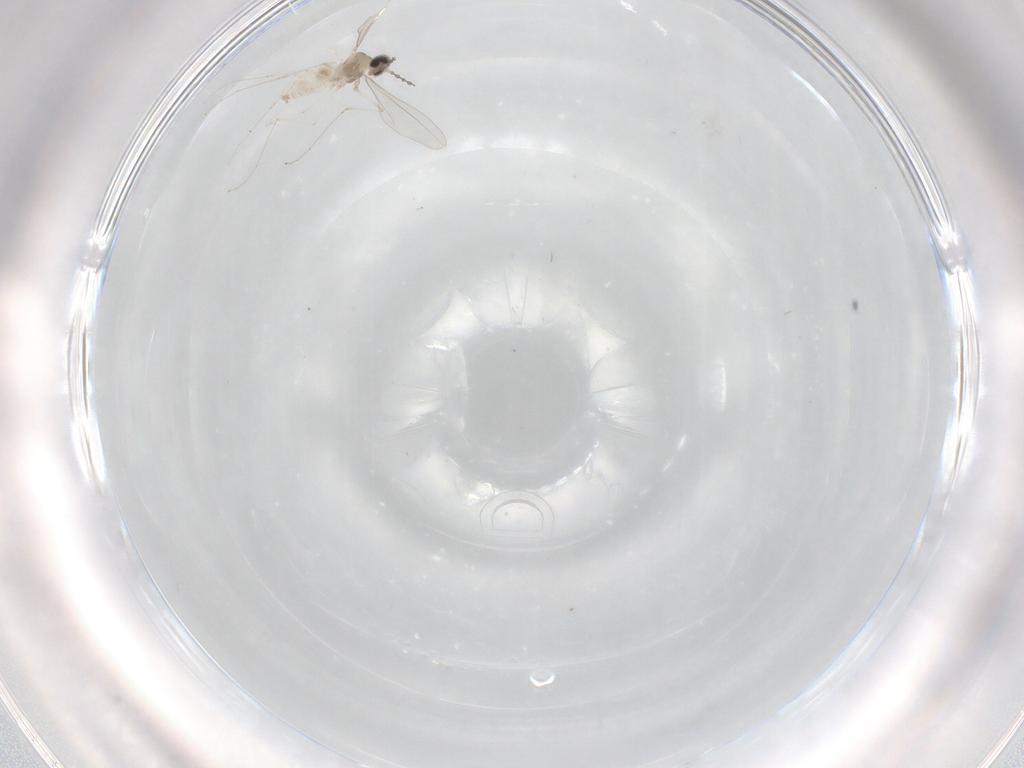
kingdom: Animalia
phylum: Arthropoda
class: Insecta
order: Diptera
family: Cecidomyiidae
